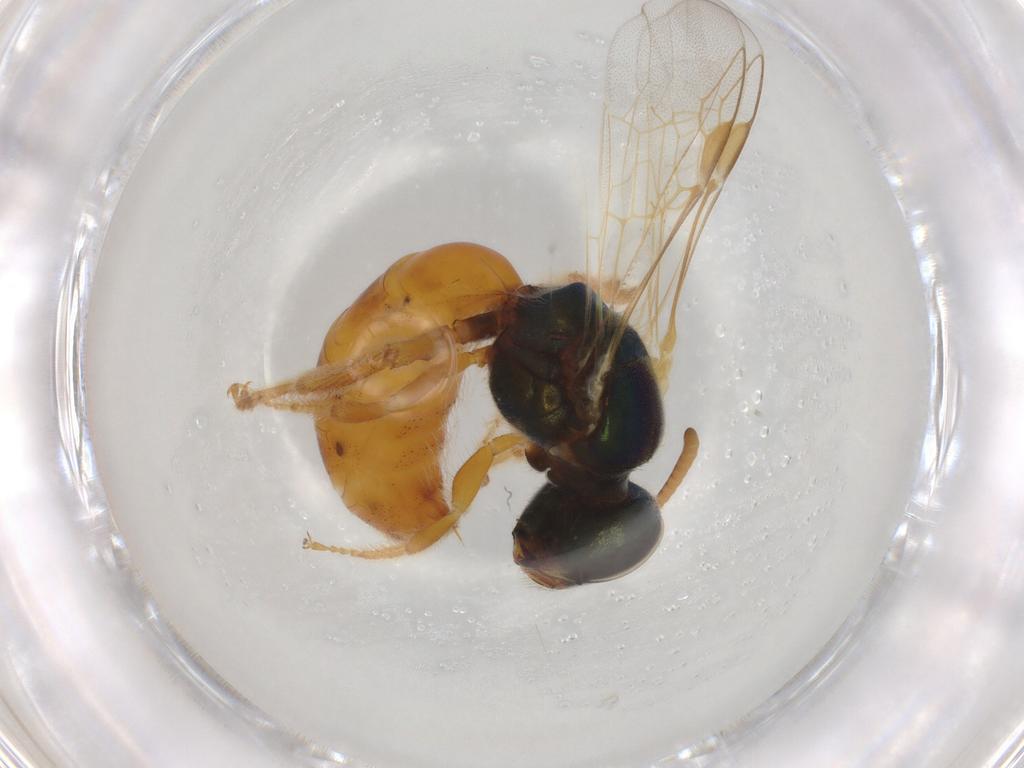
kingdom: Animalia
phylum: Arthropoda
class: Insecta
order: Hymenoptera
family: Halictidae
